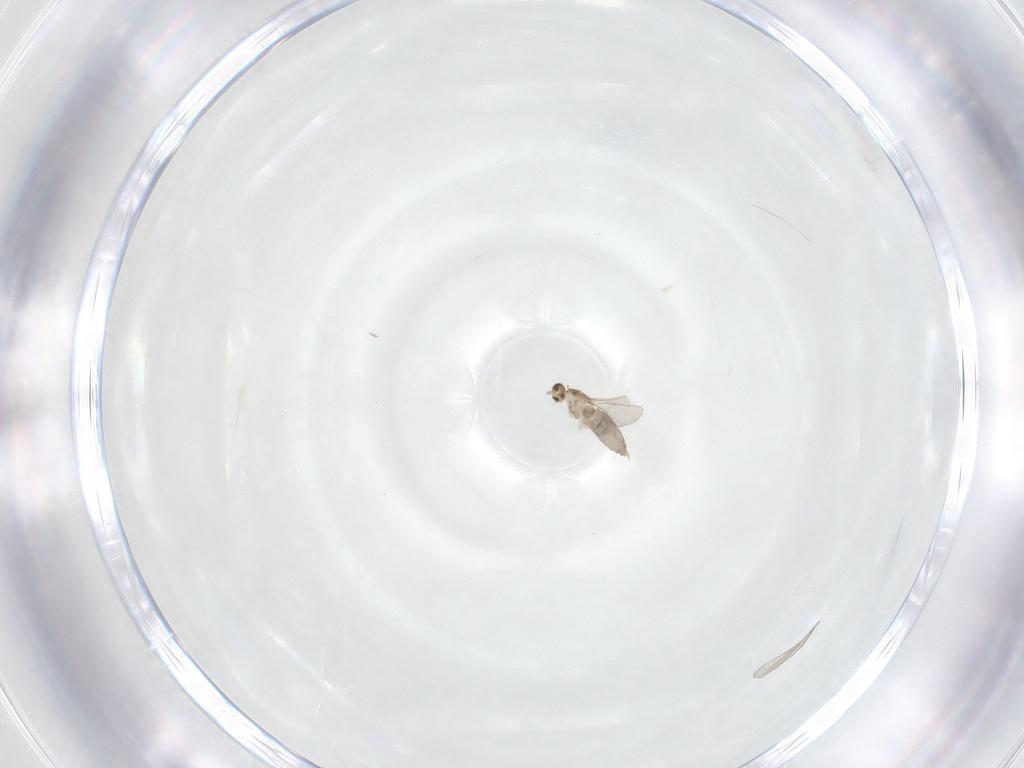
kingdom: Animalia
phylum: Arthropoda
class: Insecta
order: Diptera
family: Cecidomyiidae
